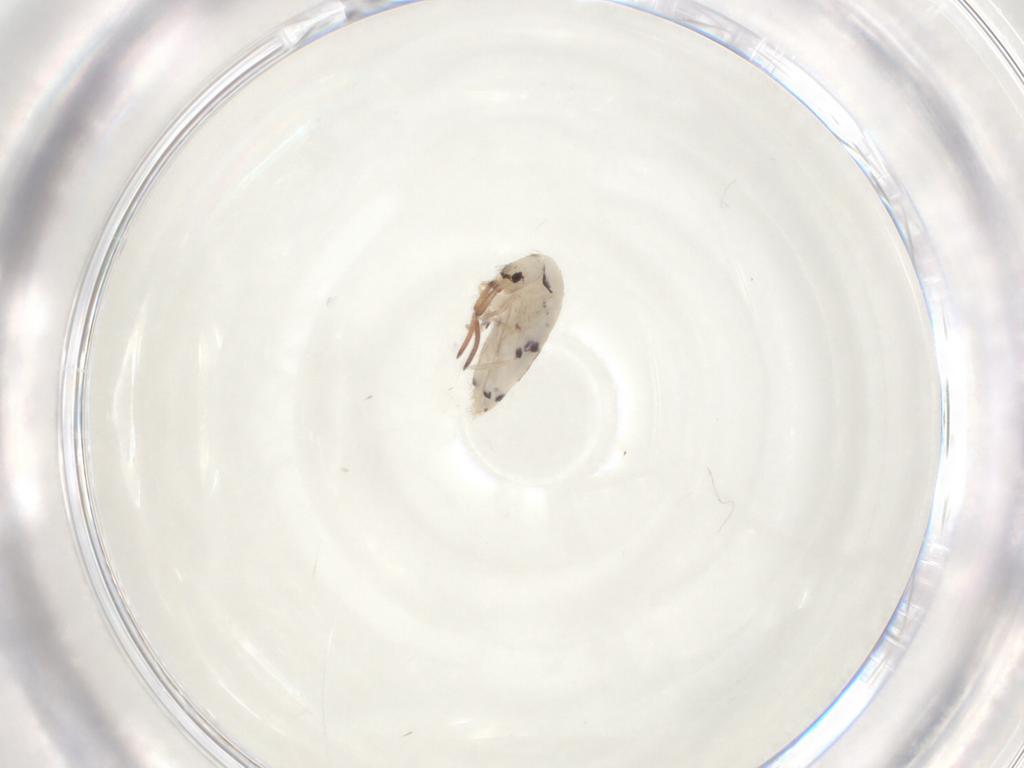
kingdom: Animalia
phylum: Arthropoda
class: Collembola
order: Entomobryomorpha
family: Entomobryidae
